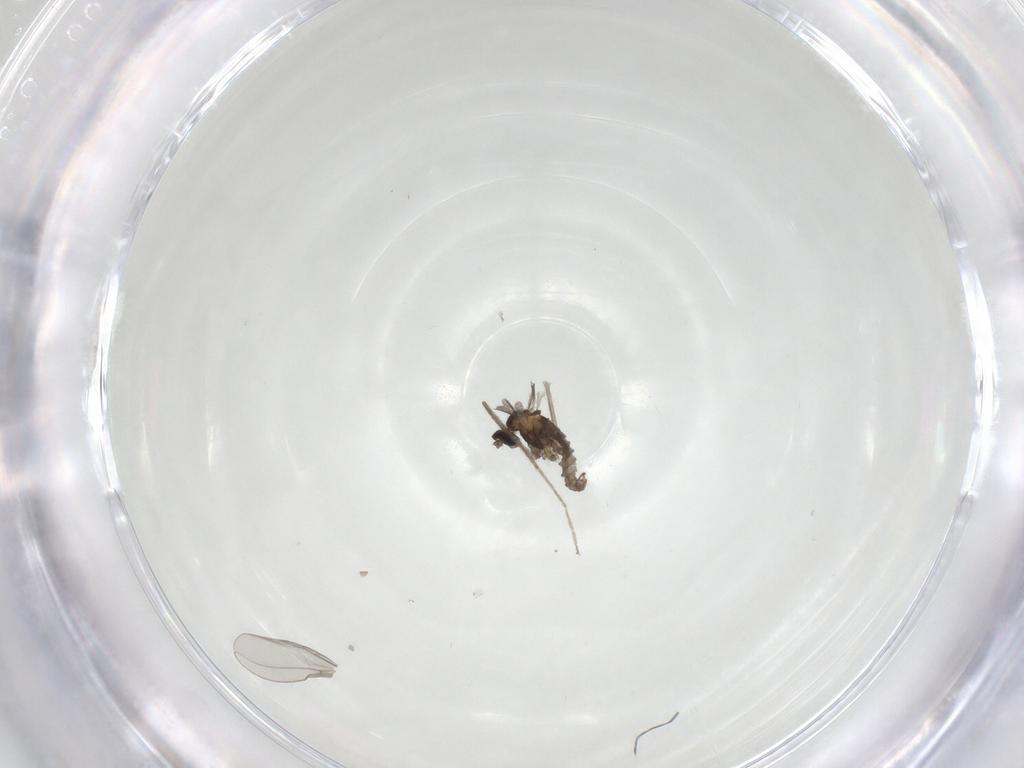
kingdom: Animalia
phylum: Arthropoda
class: Insecta
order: Diptera
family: Cecidomyiidae
